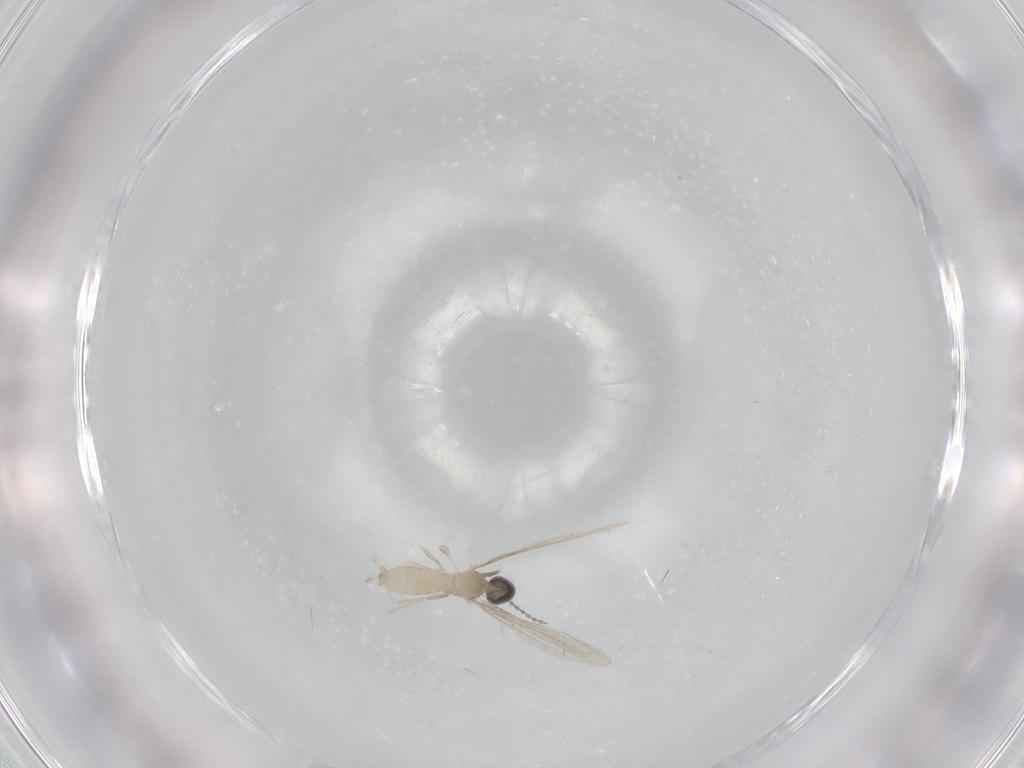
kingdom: Animalia
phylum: Arthropoda
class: Insecta
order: Diptera
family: Cecidomyiidae
